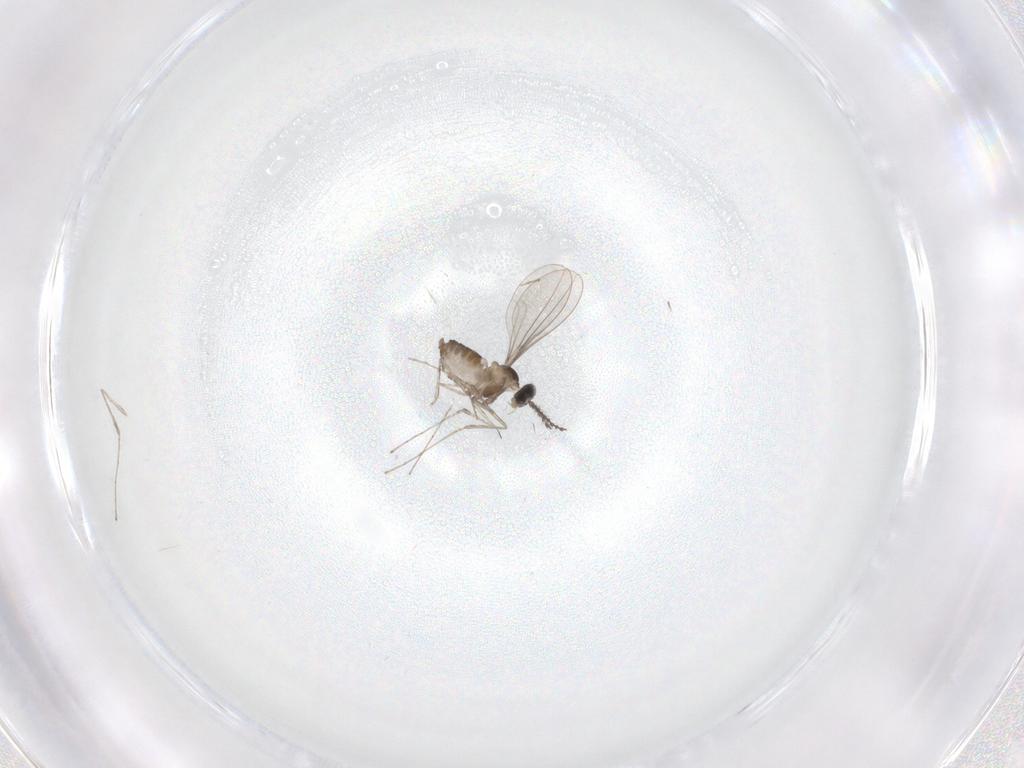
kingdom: Animalia
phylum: Arthropoda
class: Insecta
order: Diptera
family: Cecidomyiidae
